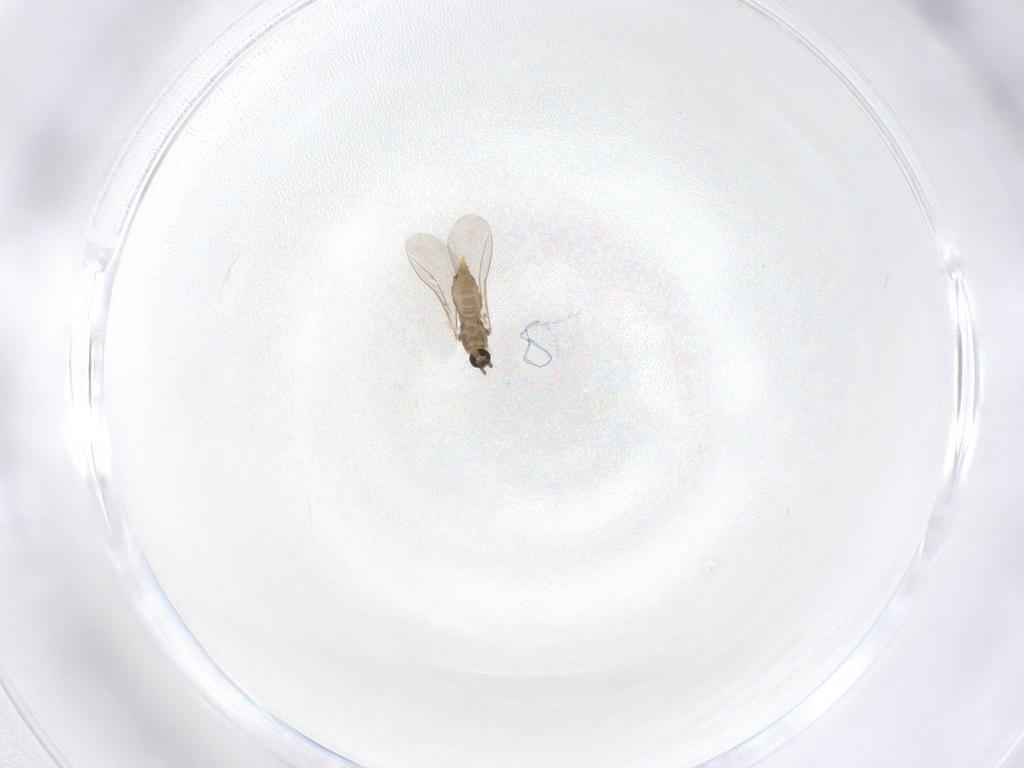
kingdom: Animalia
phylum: Arthropoda
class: Insecta
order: Diptera
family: Cecidomyiidae
